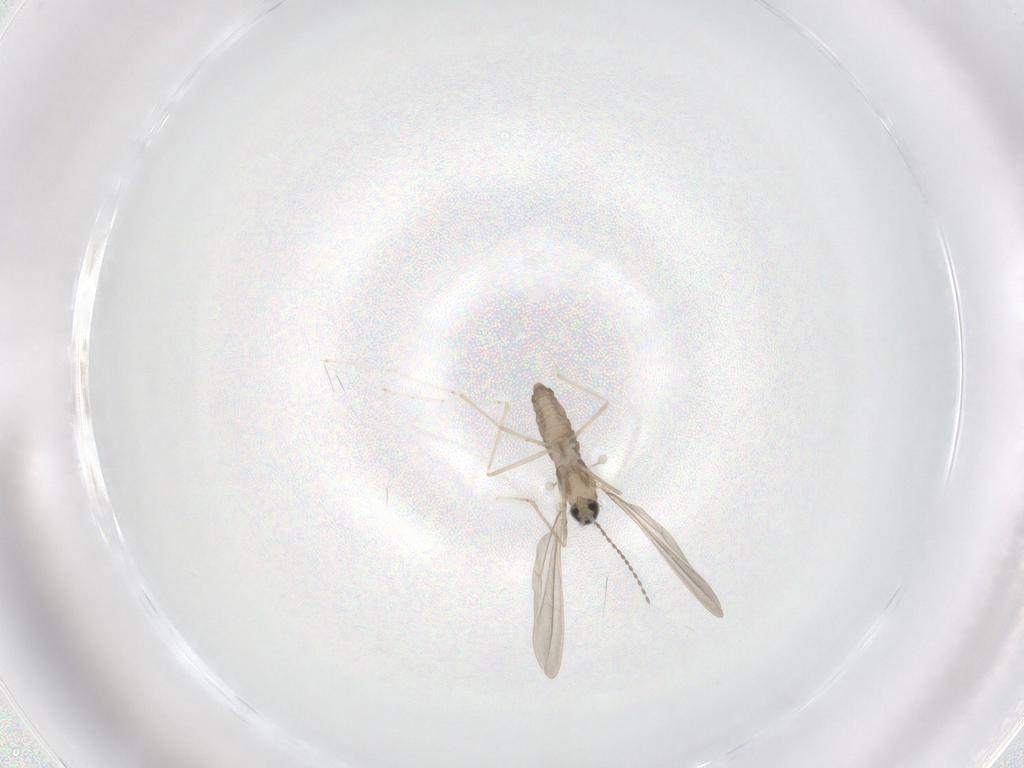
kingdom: Animalia
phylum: Arthropoda
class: Insecta
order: Diptera
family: Cecidomyiidae
